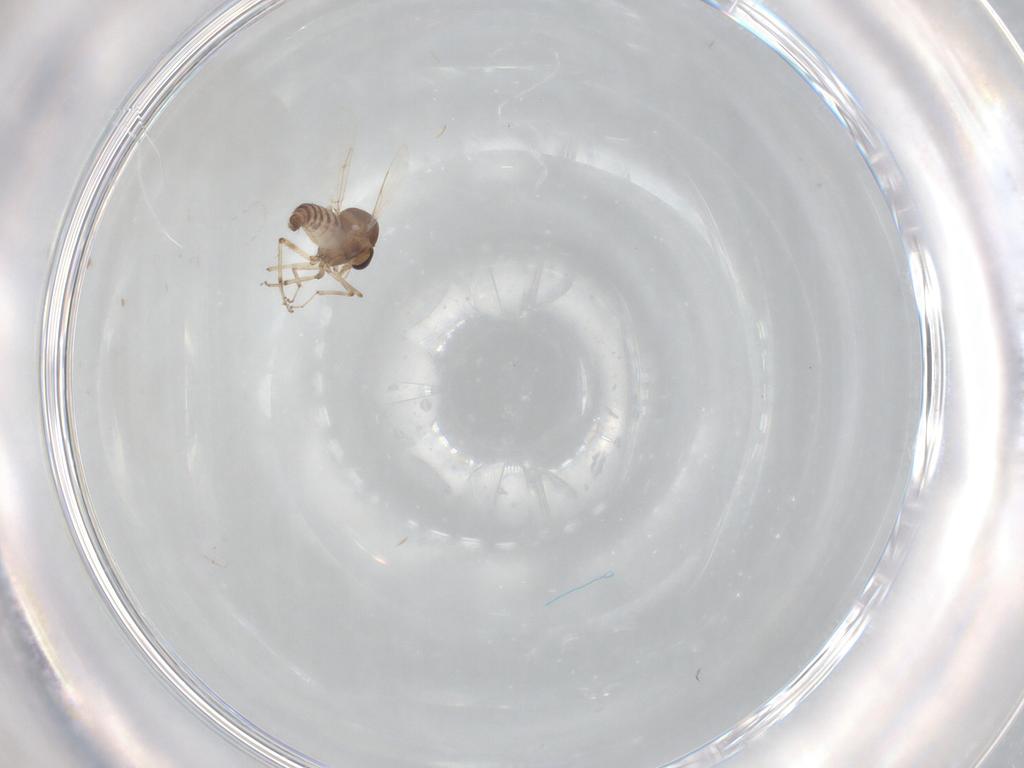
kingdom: Animalia
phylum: Arthropoda
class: Insecta
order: Diptera
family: Ceratopogonidae
